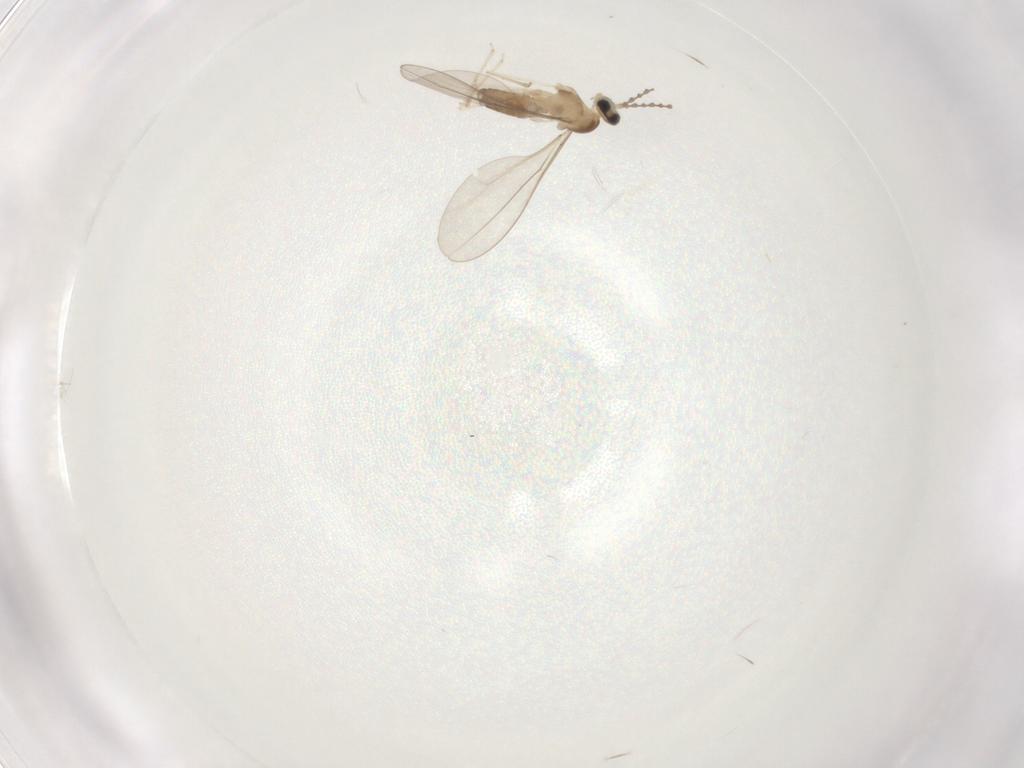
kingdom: Animalia
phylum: Arthropoda
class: Insecta
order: Diptera
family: Cecidomyiidae
